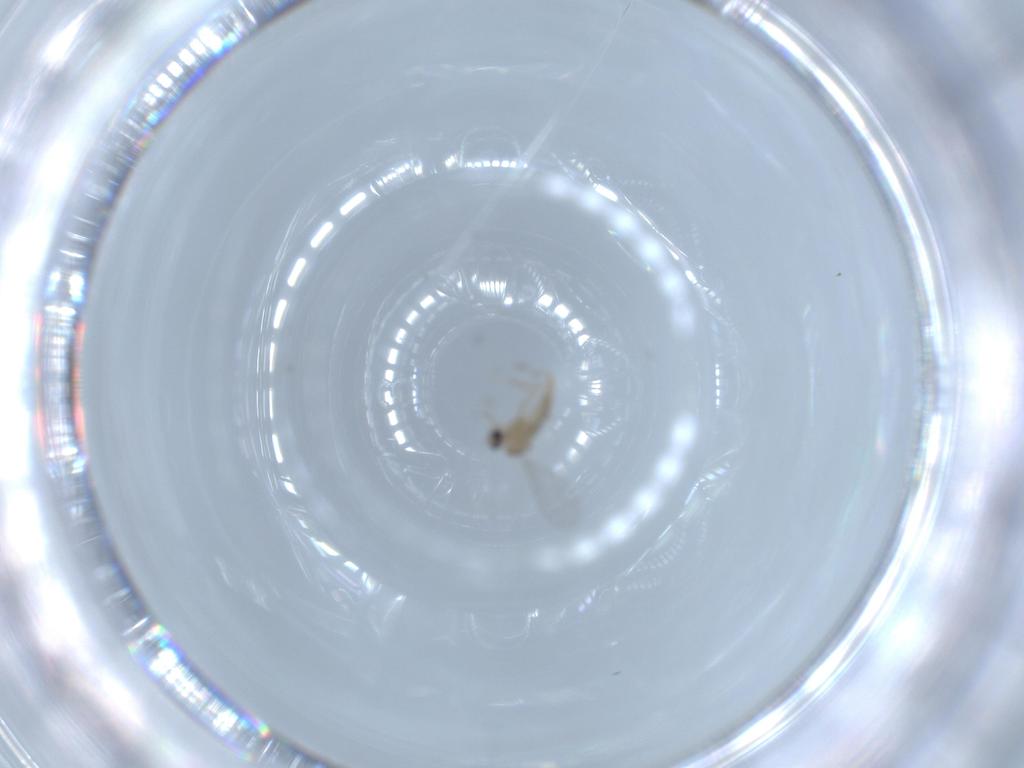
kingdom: Animalia
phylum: Arthropoda
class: Insecta
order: Diptera
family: Cecidomyiidae
